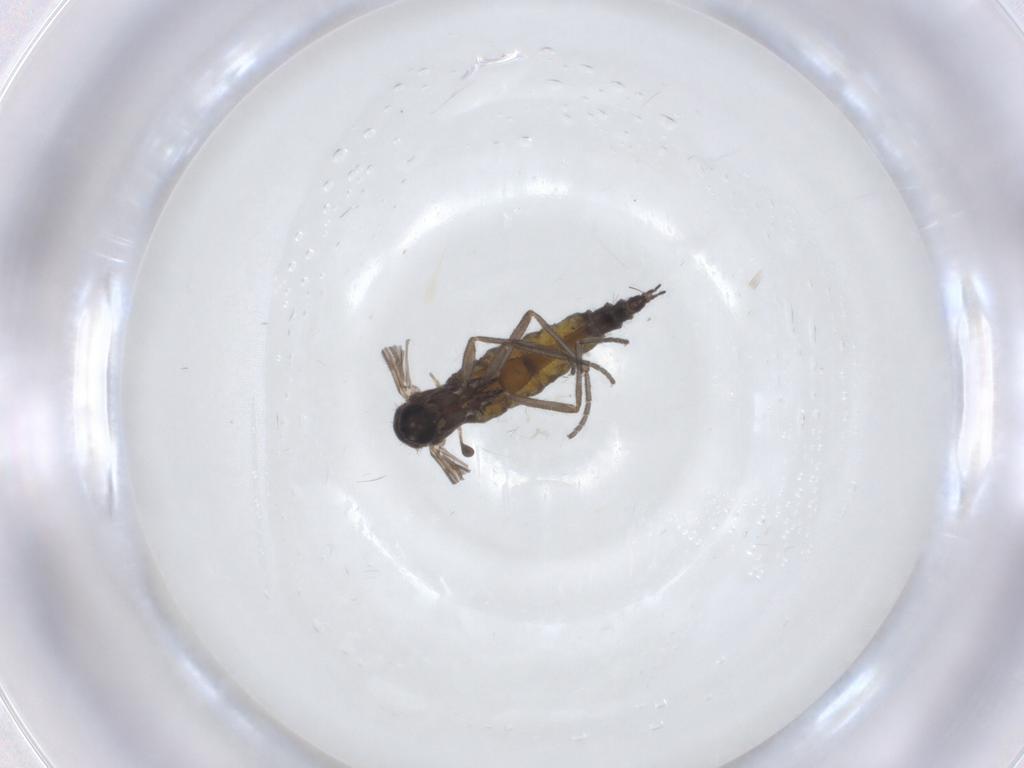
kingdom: Animalia
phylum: Arthropoda
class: Insecta
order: Diptera
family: Sciaridae
